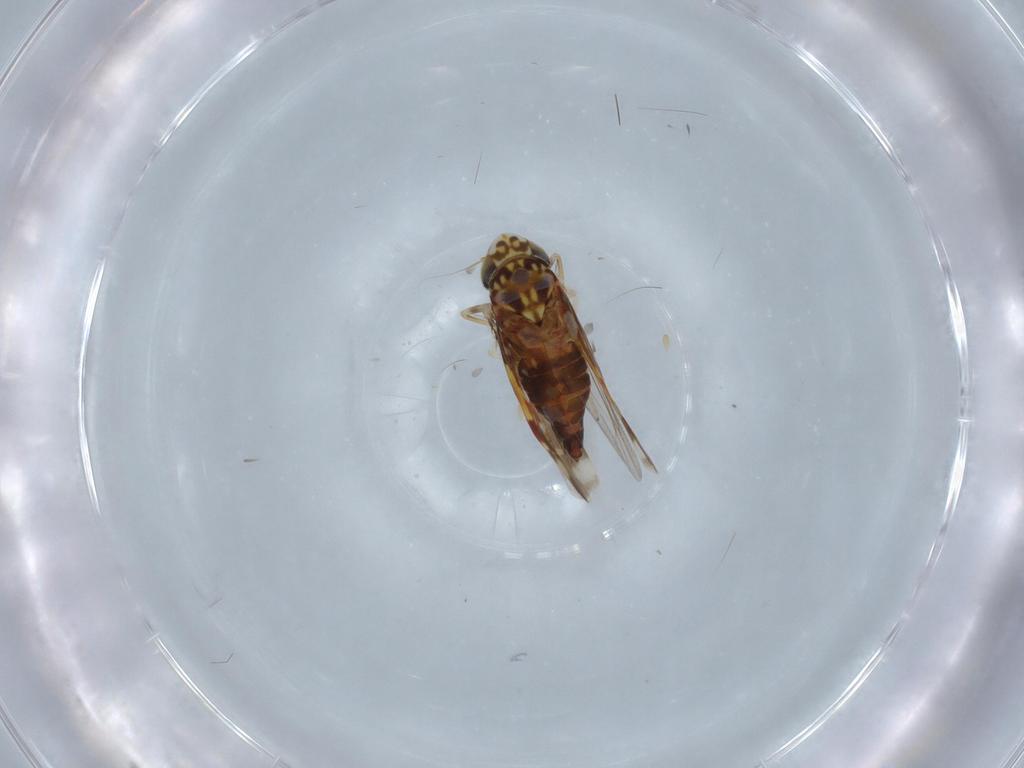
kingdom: Animalia
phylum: Arthropoda
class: Insecta
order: Hemiptera
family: Cicadellidae
